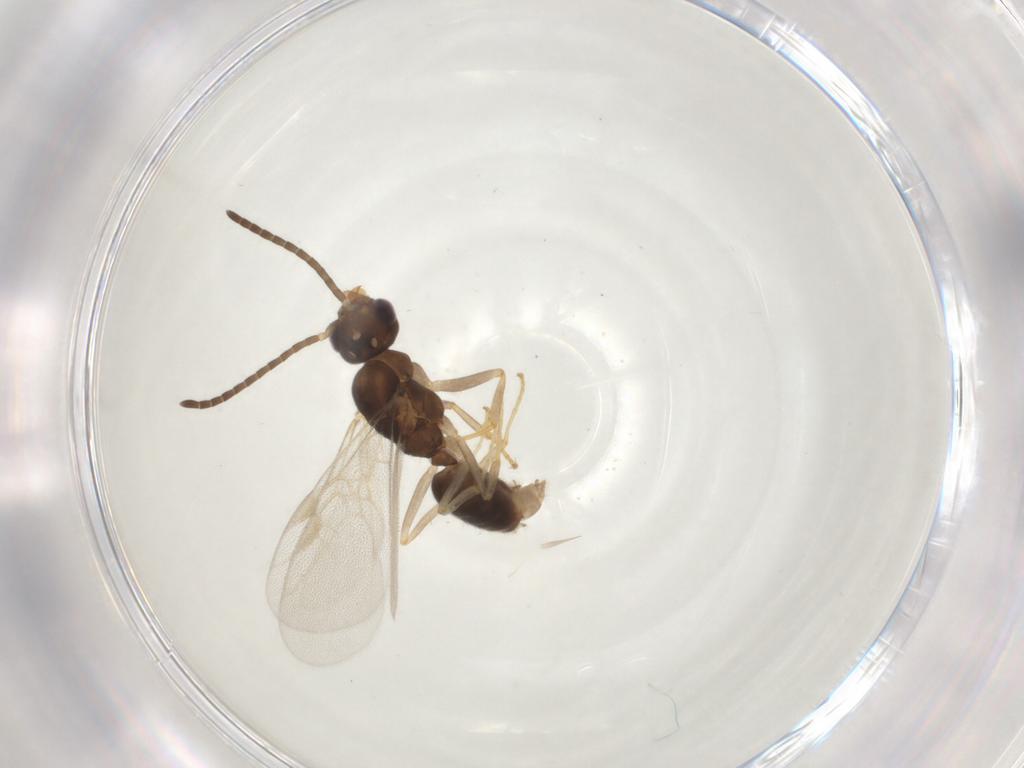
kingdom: Animalia
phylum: Arthropoda
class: Insecta
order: Hymenoptera
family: Formicidae
